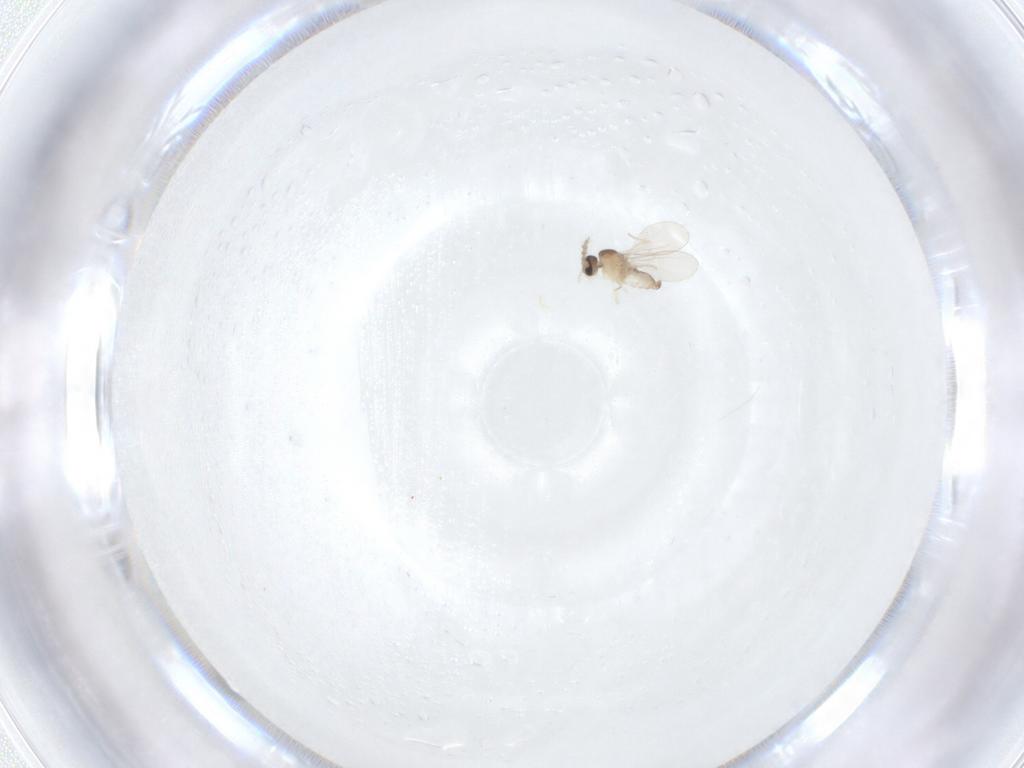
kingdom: Animalia
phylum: Arthropoda
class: Insecta
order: Diptera
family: Cecidomyiidae
